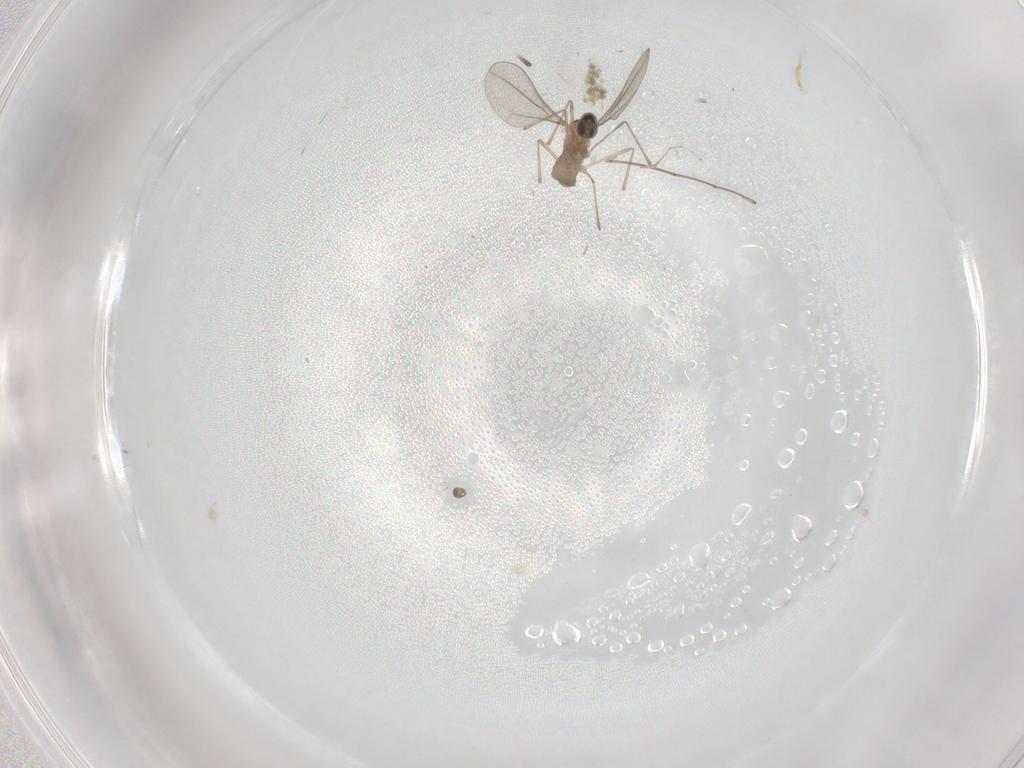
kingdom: Animalia
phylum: Arthropoda
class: Insecta
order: Diptera
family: Cecidomyiidae
